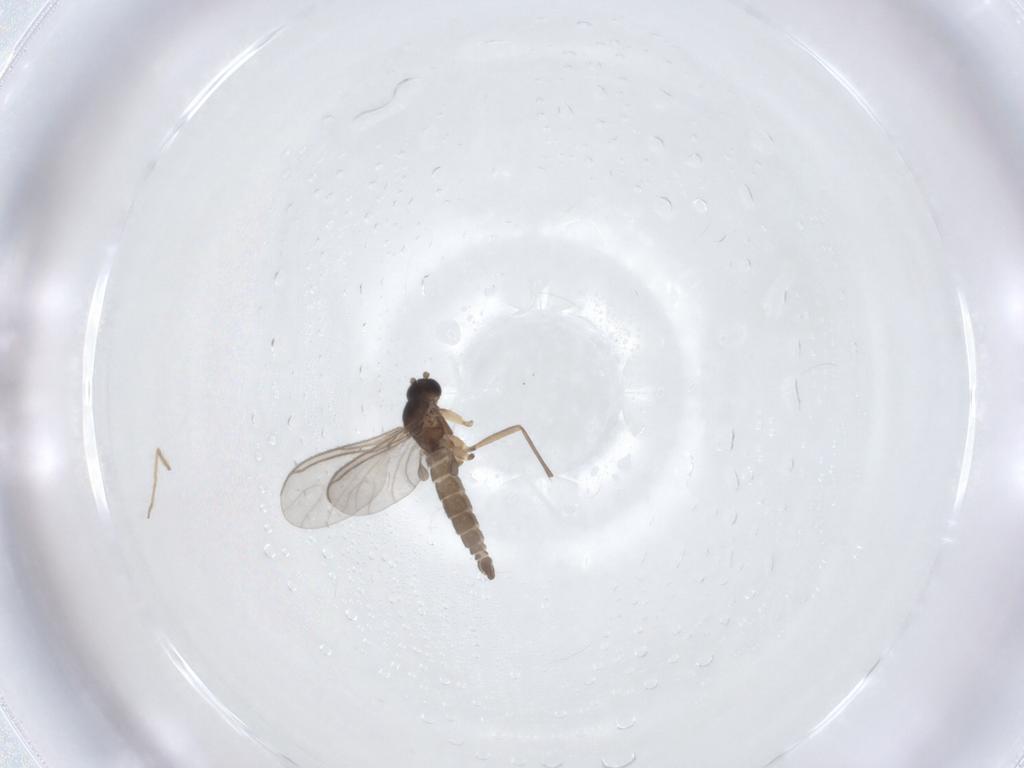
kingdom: Animalia
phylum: Arthropoda
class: Insecta
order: Diptera
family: Sciaridae
